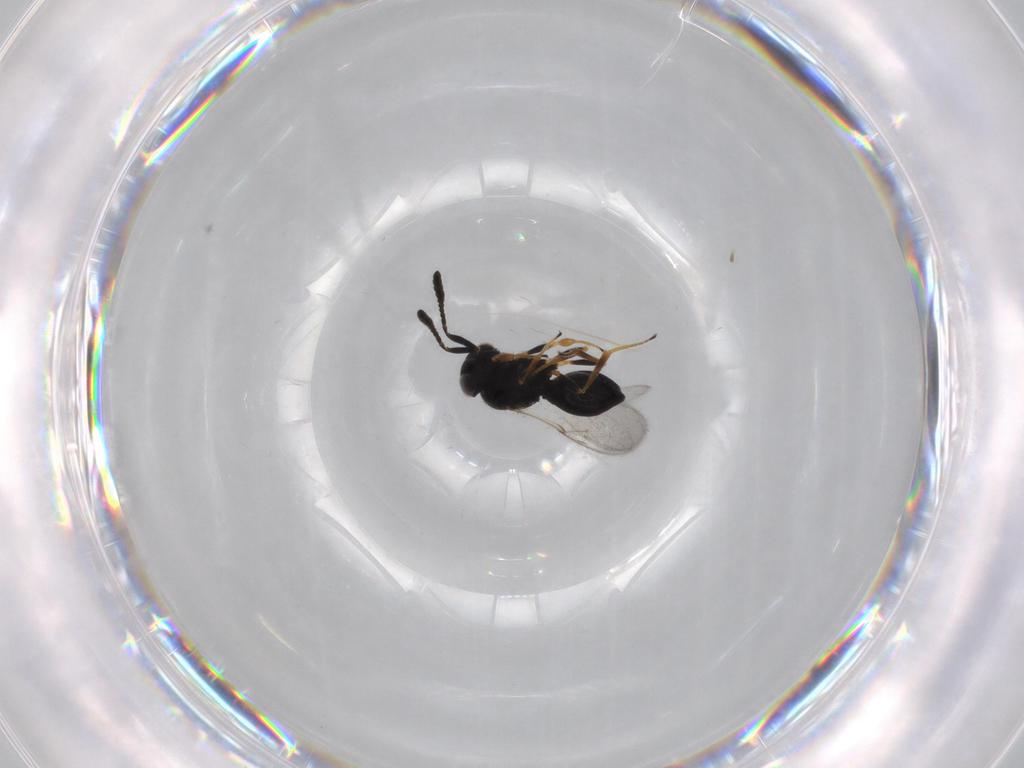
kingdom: Animalia
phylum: Arthropoda
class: Insecta
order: Hymenoptera
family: Scelionidae
